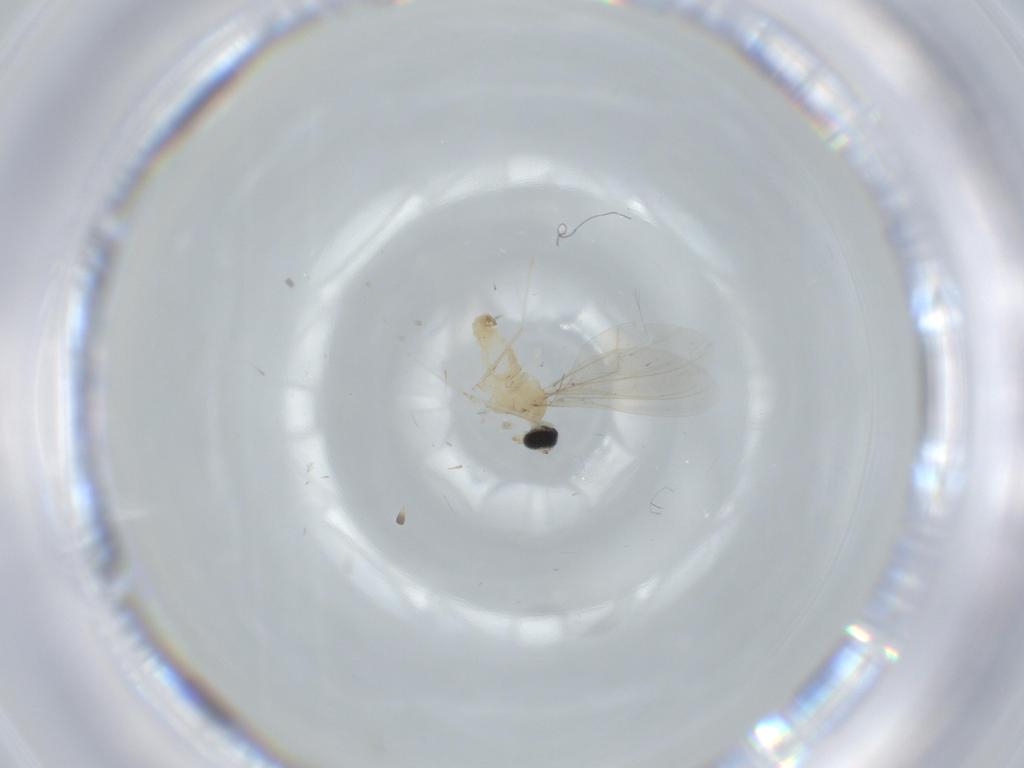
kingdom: Animalia
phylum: Arthropoda
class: Insecta
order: Diptera
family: Cecidomyiidae
